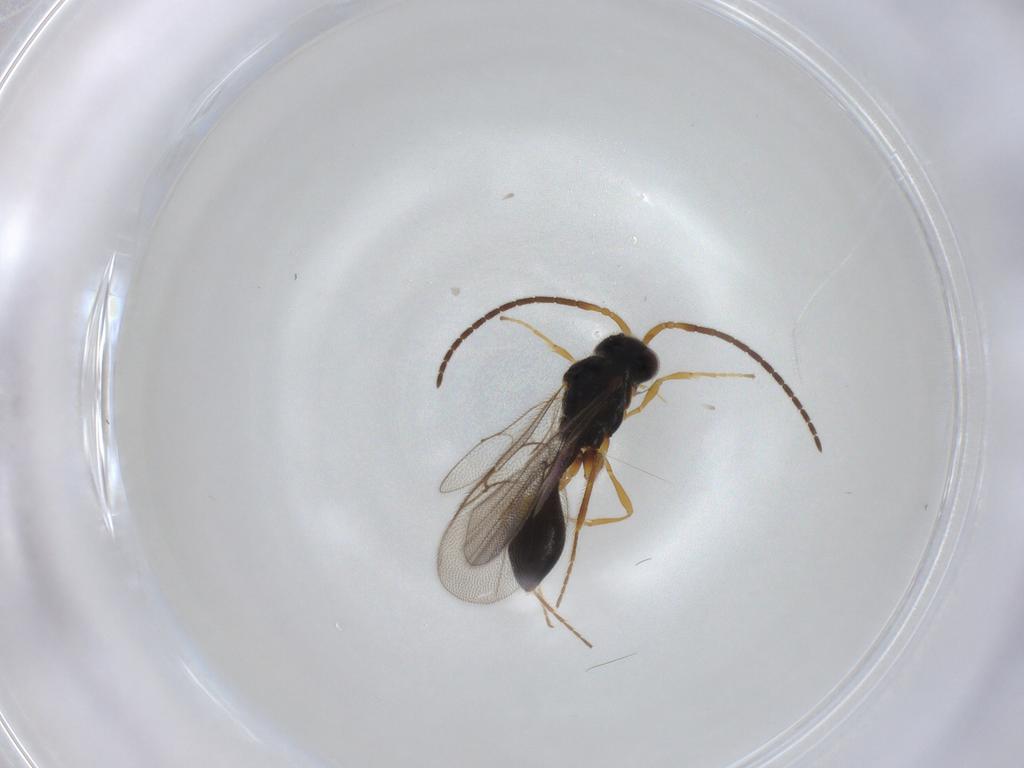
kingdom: Animalia
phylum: Arthropoda
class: Insecta
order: Hymenoptera
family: Diapriidae
